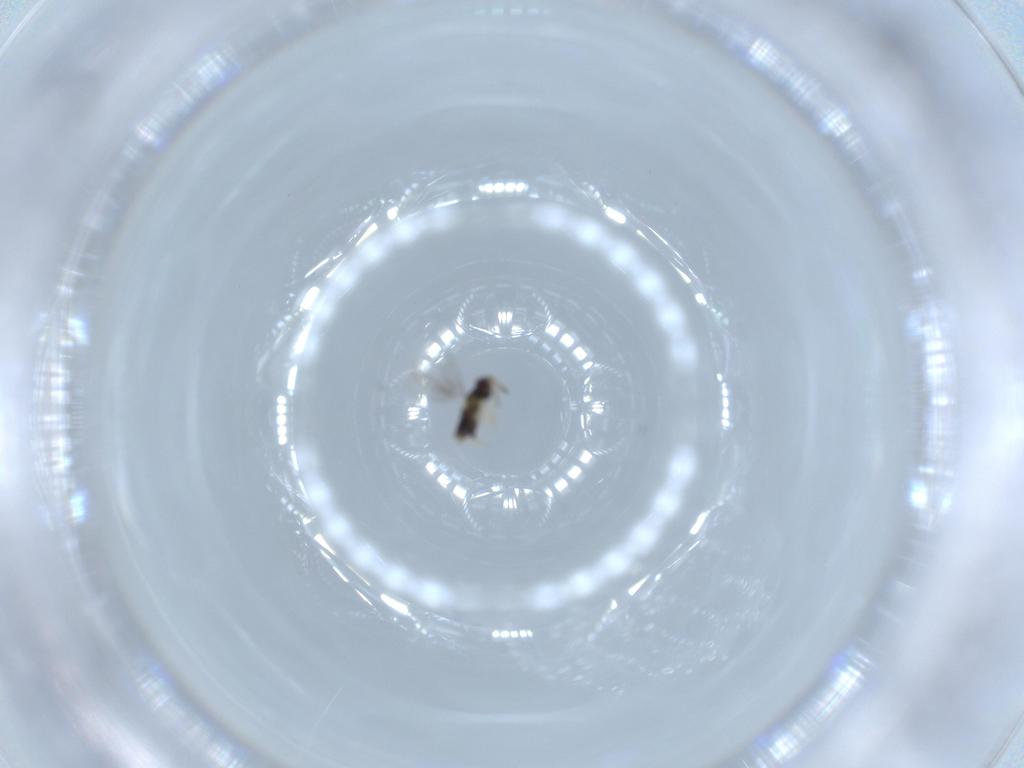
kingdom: Animalia
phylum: Arthropoda
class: Insecta
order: Hymenoptera
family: Aphelinidae
